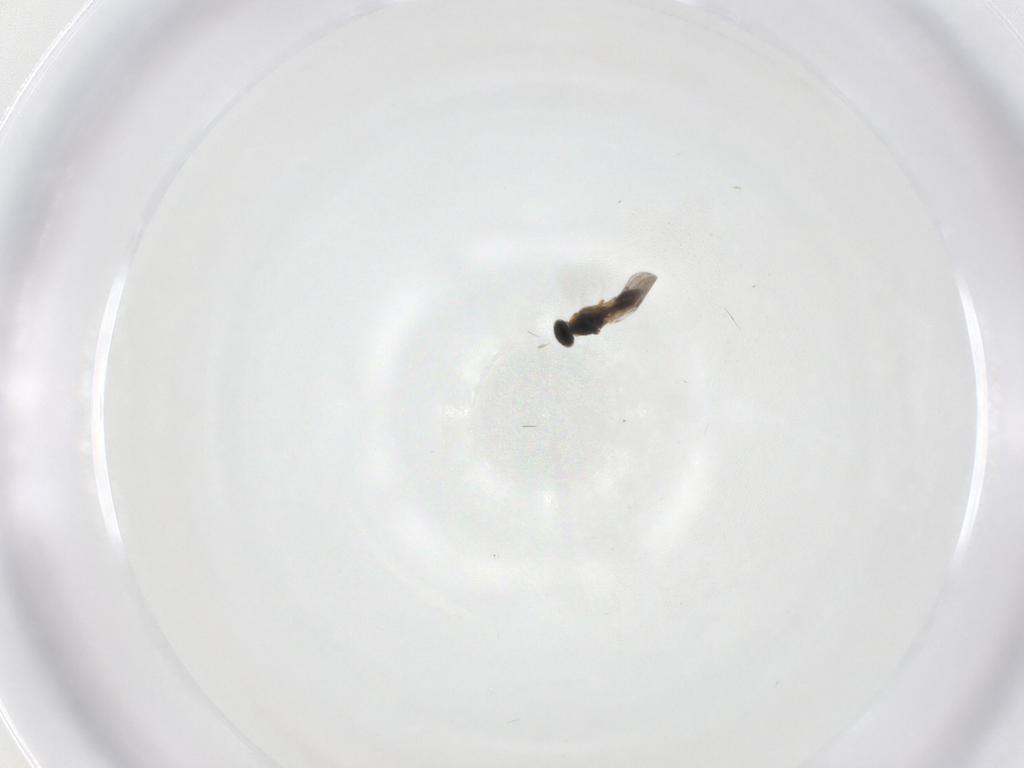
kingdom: Animalia
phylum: Arthropoda
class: Insecta
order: Hymenoptera
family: Platygastridae
